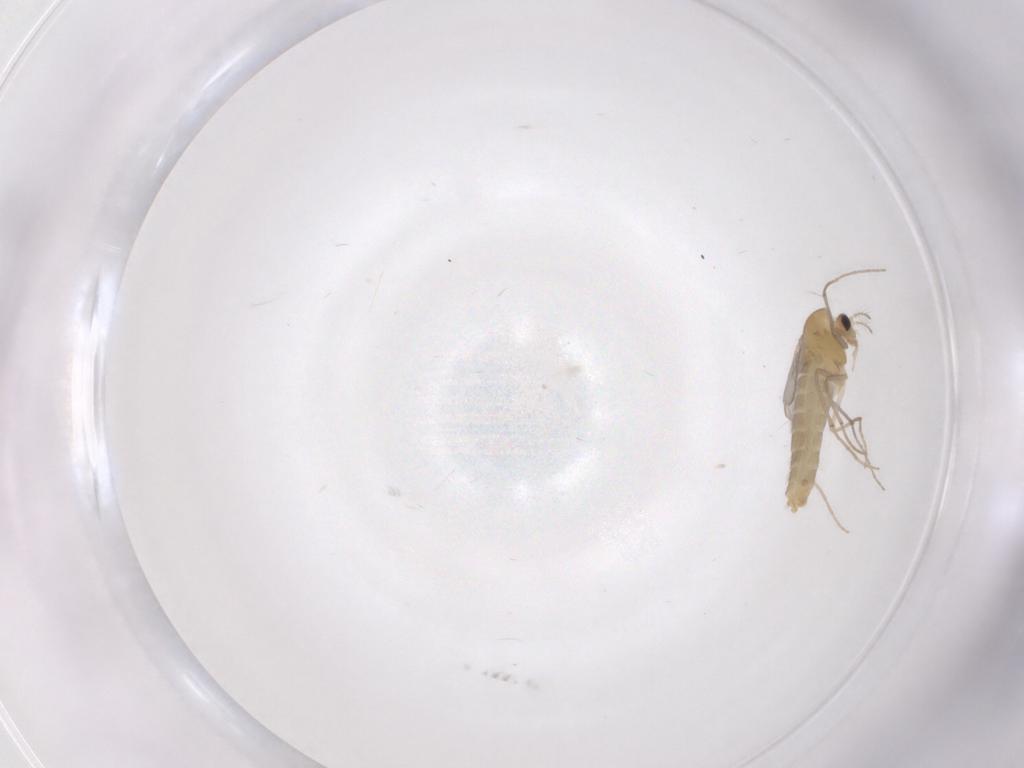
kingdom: Animalia
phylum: Arthropoda
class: Insecta
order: Diptera
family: Chironomidae
